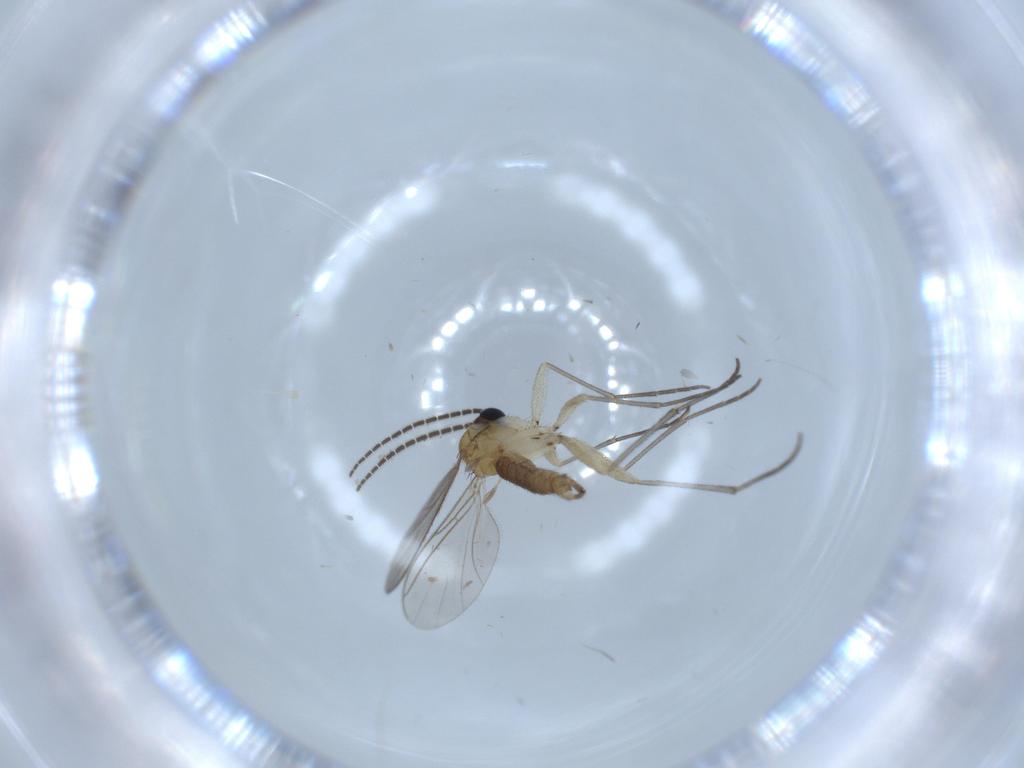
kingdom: Animalia
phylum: Arthropoda
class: Insecta
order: Diptera
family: Sciaridae
